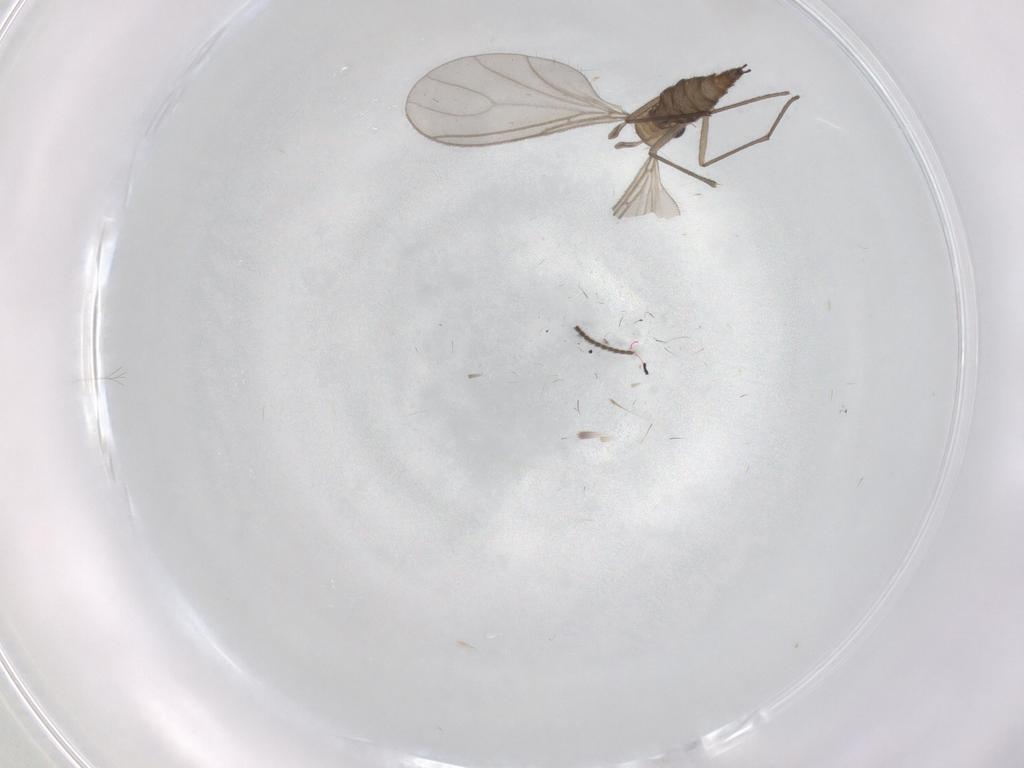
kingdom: Animalia
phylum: Arthropoda
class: Insecta
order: Diptera
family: Sciaridae
